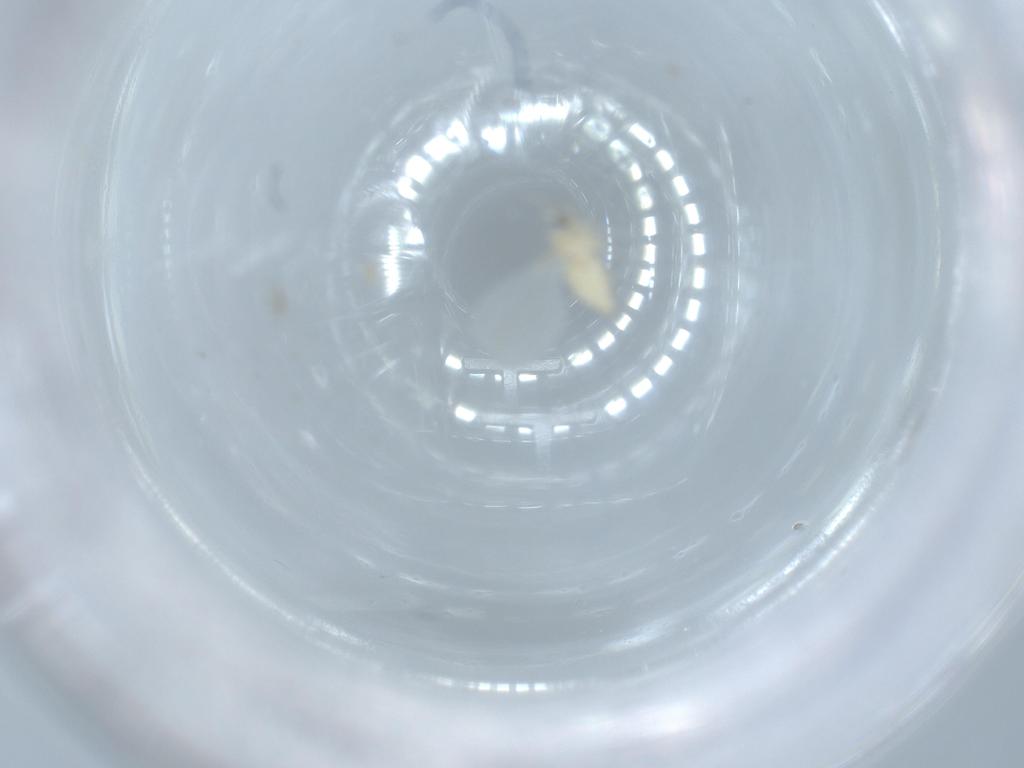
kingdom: Animalia
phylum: Arthropoda
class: Insecta
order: Diptera
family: Cecidomyiidae
